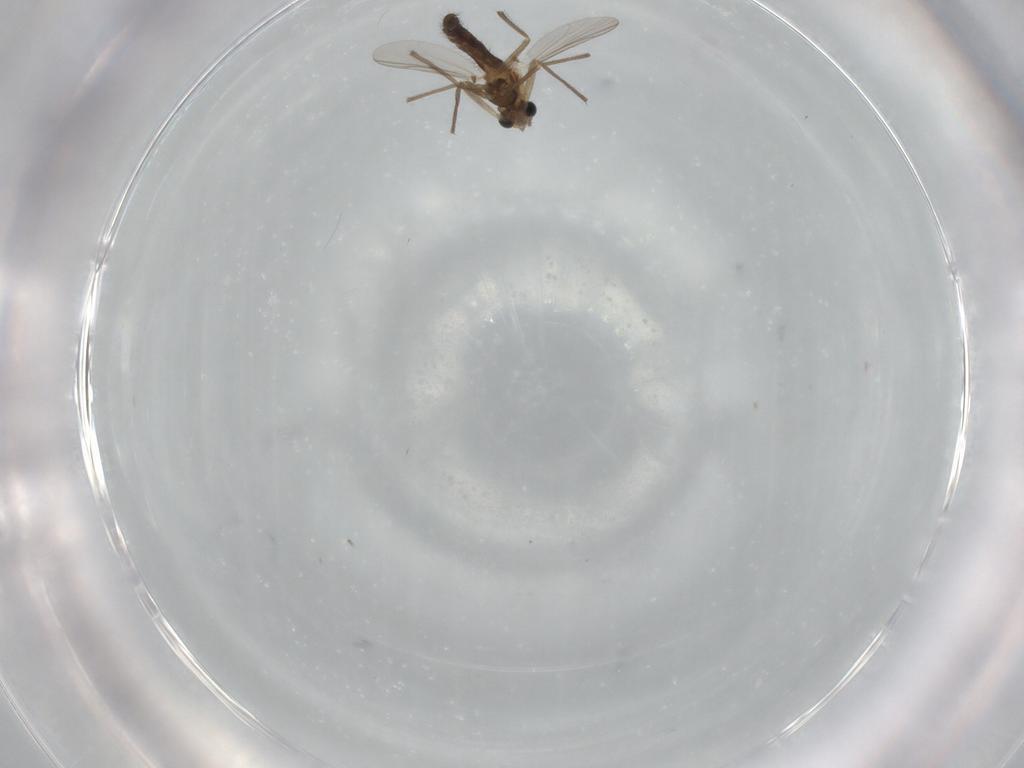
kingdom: Animalia
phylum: Arthropoda
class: Insecta
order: Diptera
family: Chironomidae
